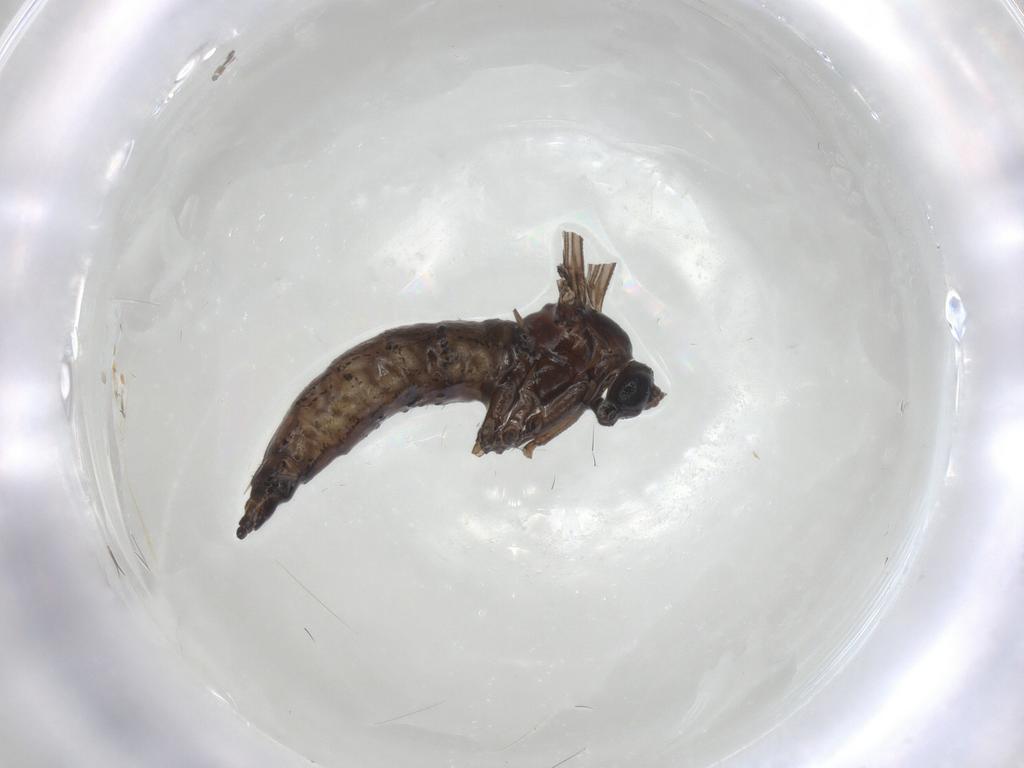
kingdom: Animalia
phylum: Arthropoda
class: Insecta
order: Diptera
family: Sciaridae
